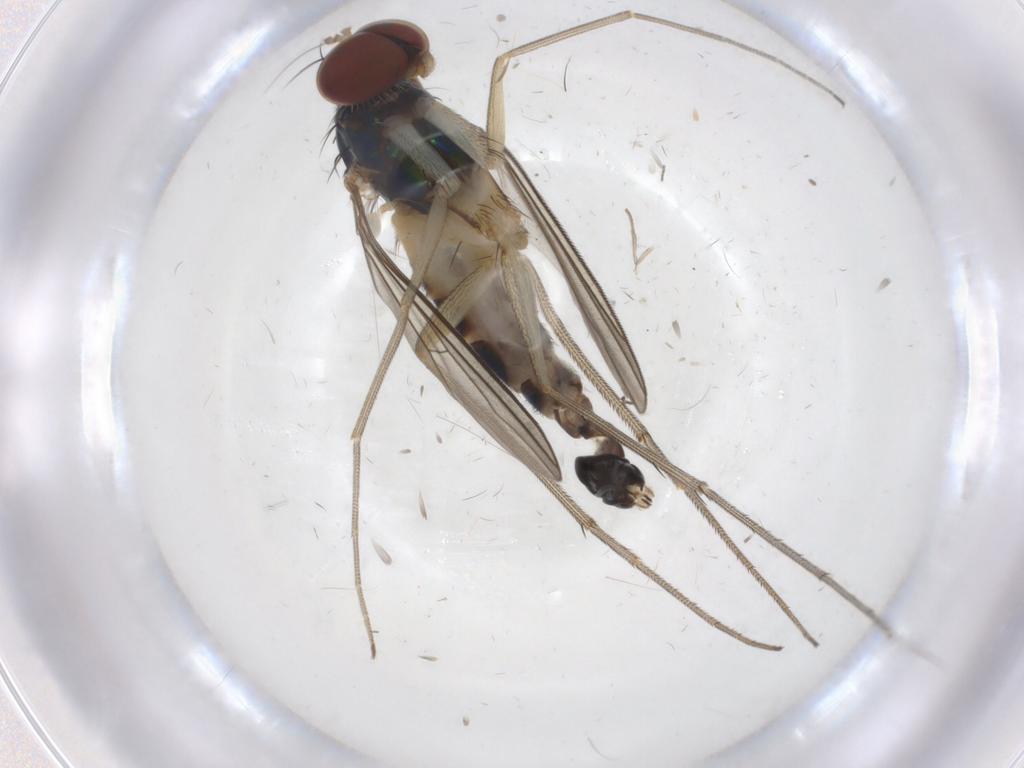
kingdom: Animalia
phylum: Arthropoda
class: Insecta
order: Diptera
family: Dolichopodidae
